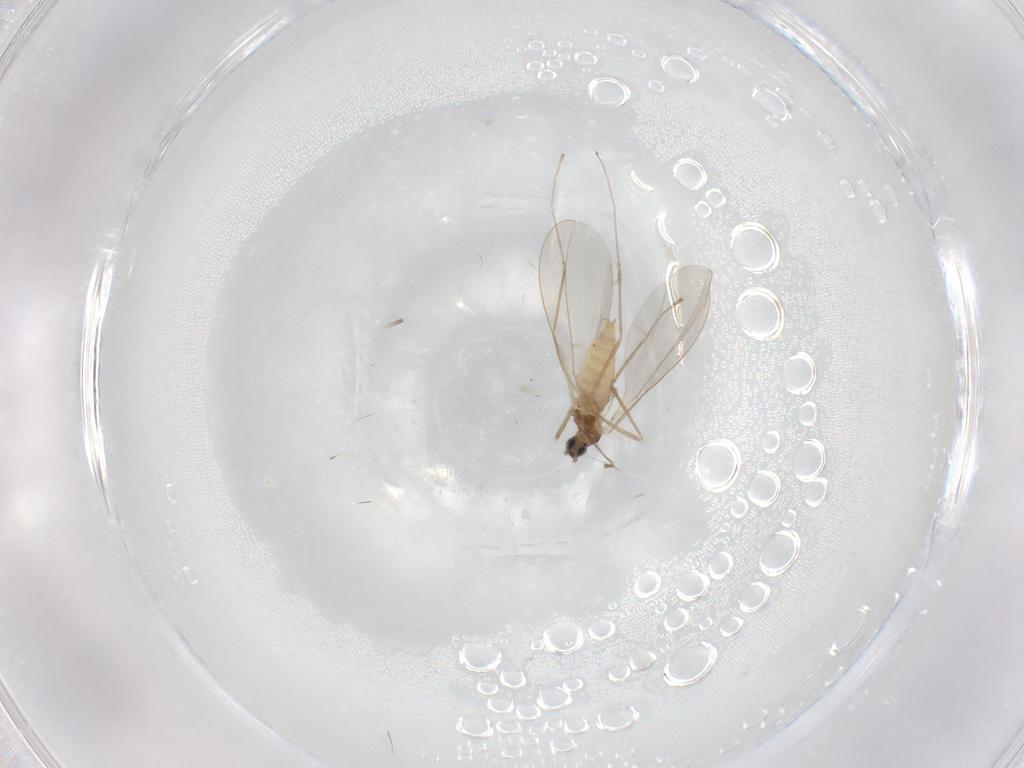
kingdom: Animalia
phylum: Arthropoda
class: Insecta
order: Diptera
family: Cecidomyiidae
